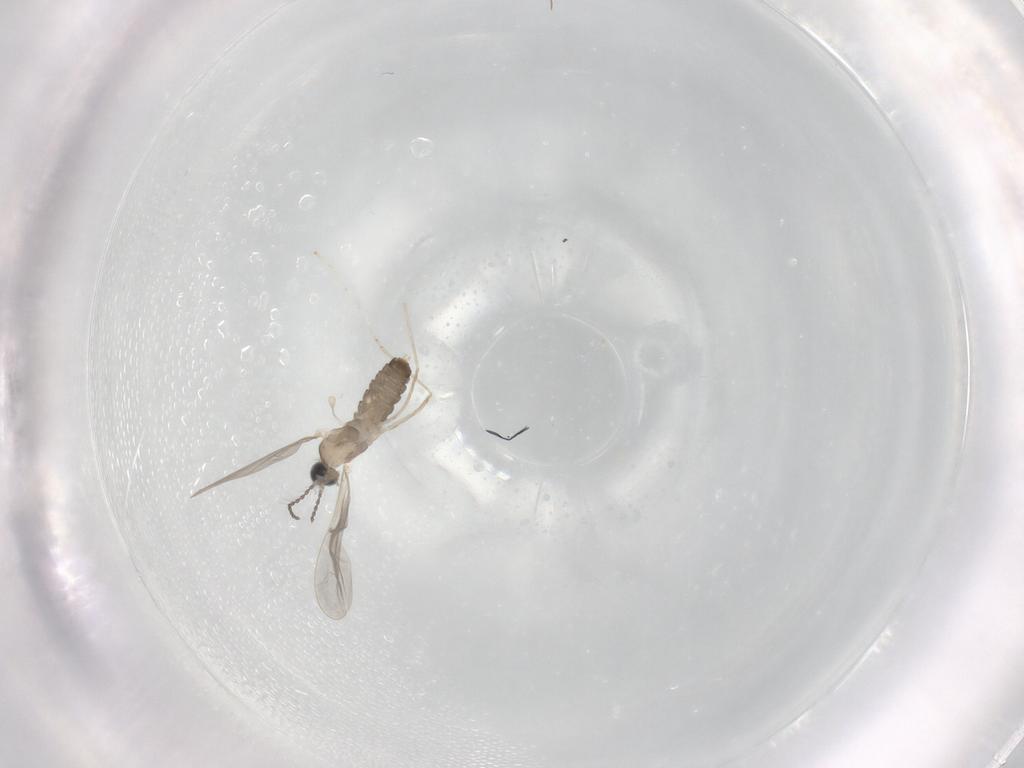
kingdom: Animalia
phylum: Arthropoda
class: Insecta
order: Diptera
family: Cecidomyiidae
